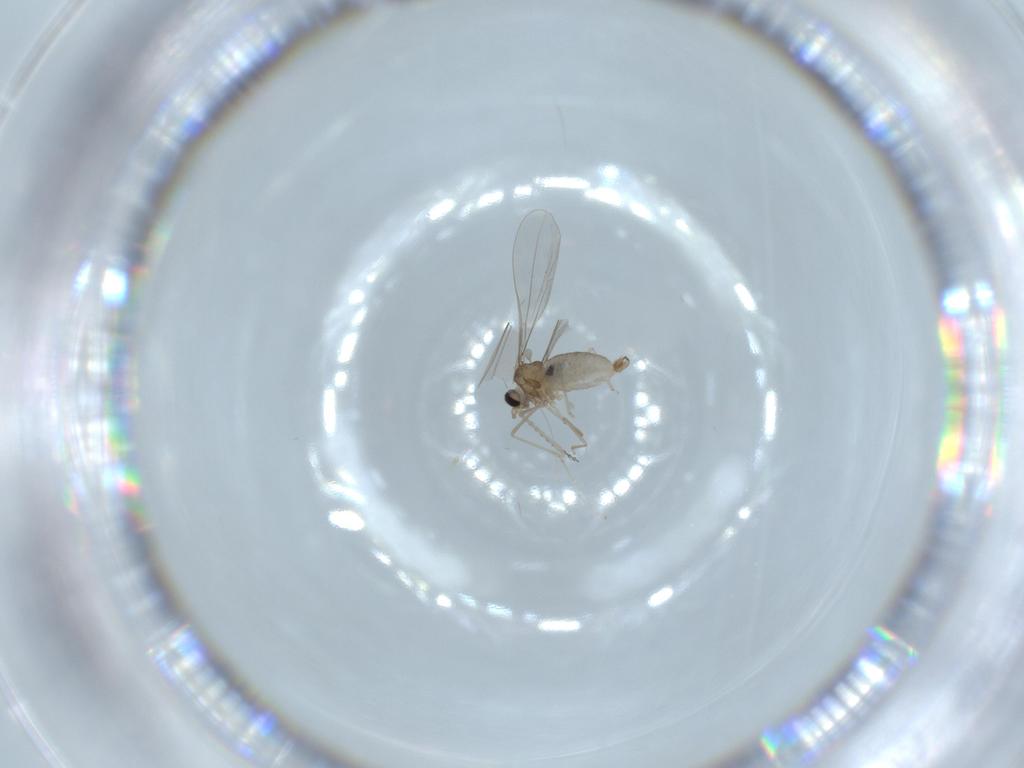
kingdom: Animalia
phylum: Arthropoda
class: Insecta
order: Diptera
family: Cecidomyiidae
